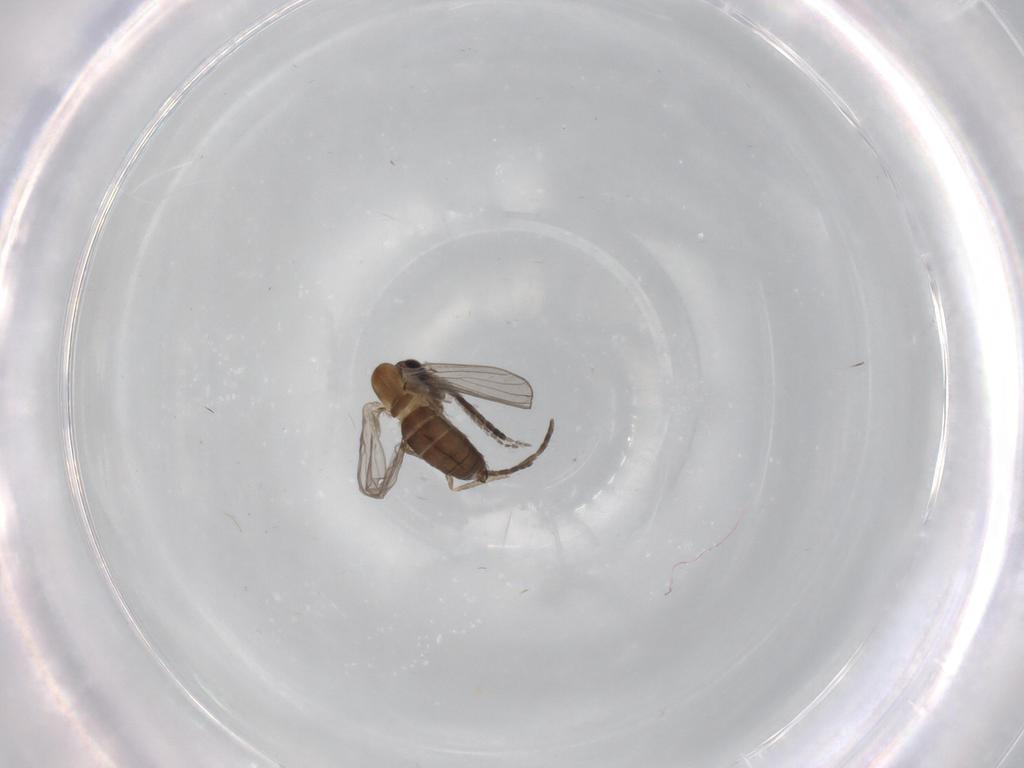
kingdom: Animalia
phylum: Arthropoda
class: Insecta
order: Diptera
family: Psychodidae
